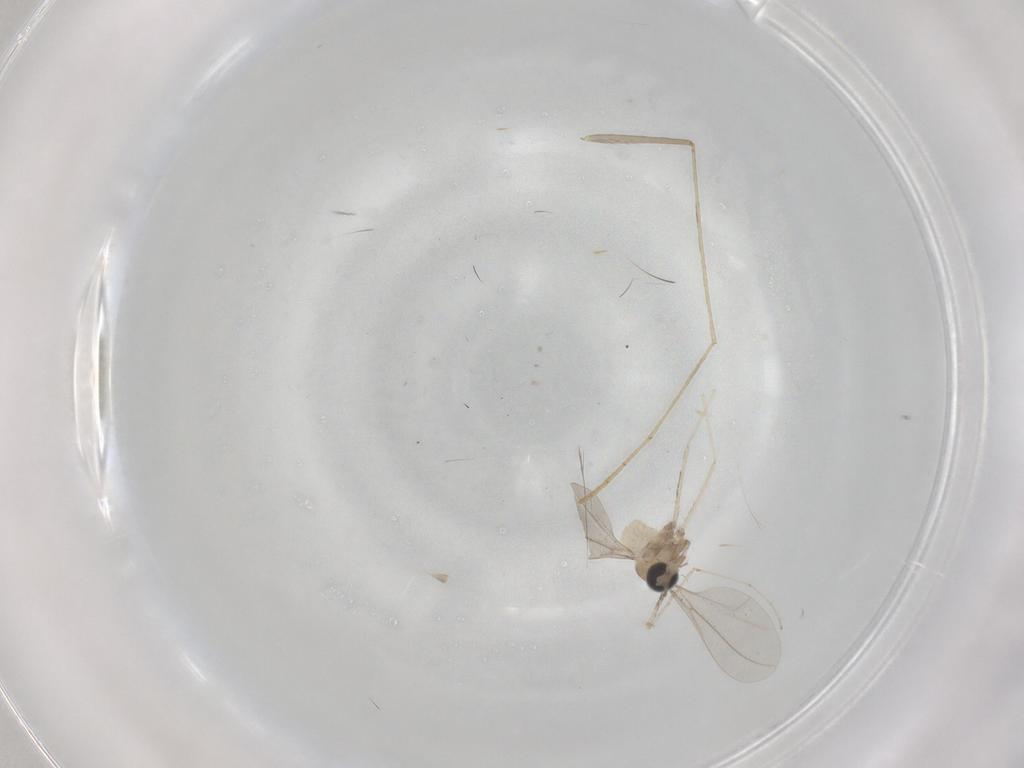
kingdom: Animalia
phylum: Arthropoda
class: Insecta
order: Diptera
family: Cecidomyiidae
